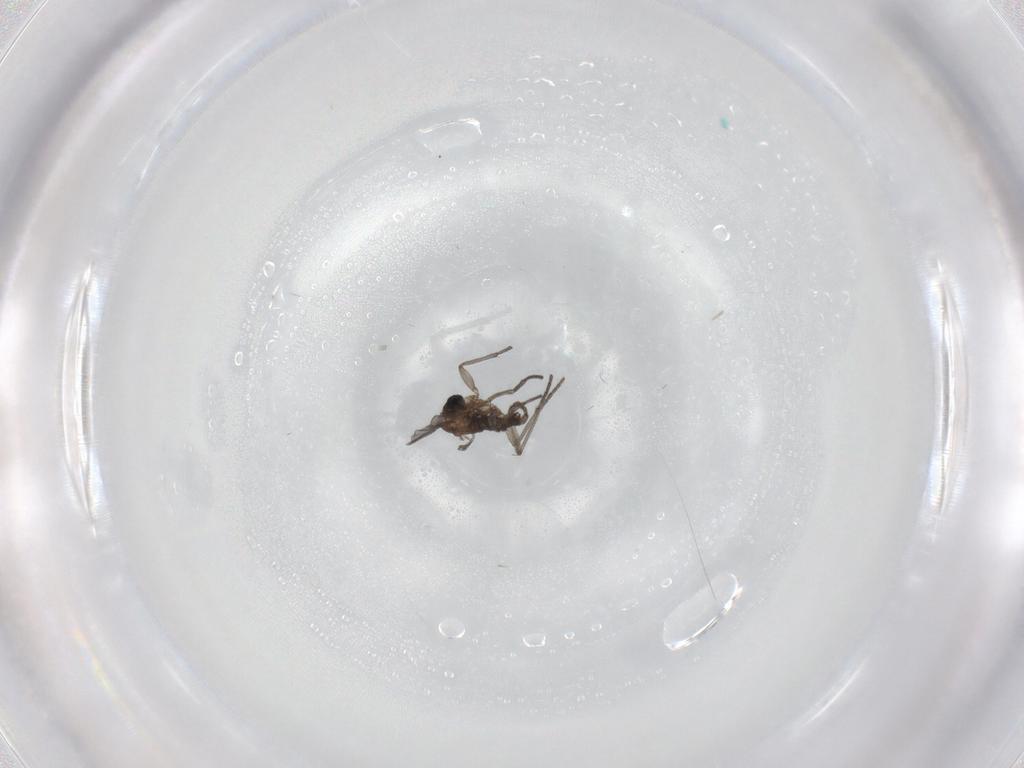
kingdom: Animalia
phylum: Arthropoda
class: Insecta
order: Diptera
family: Sciaridae
